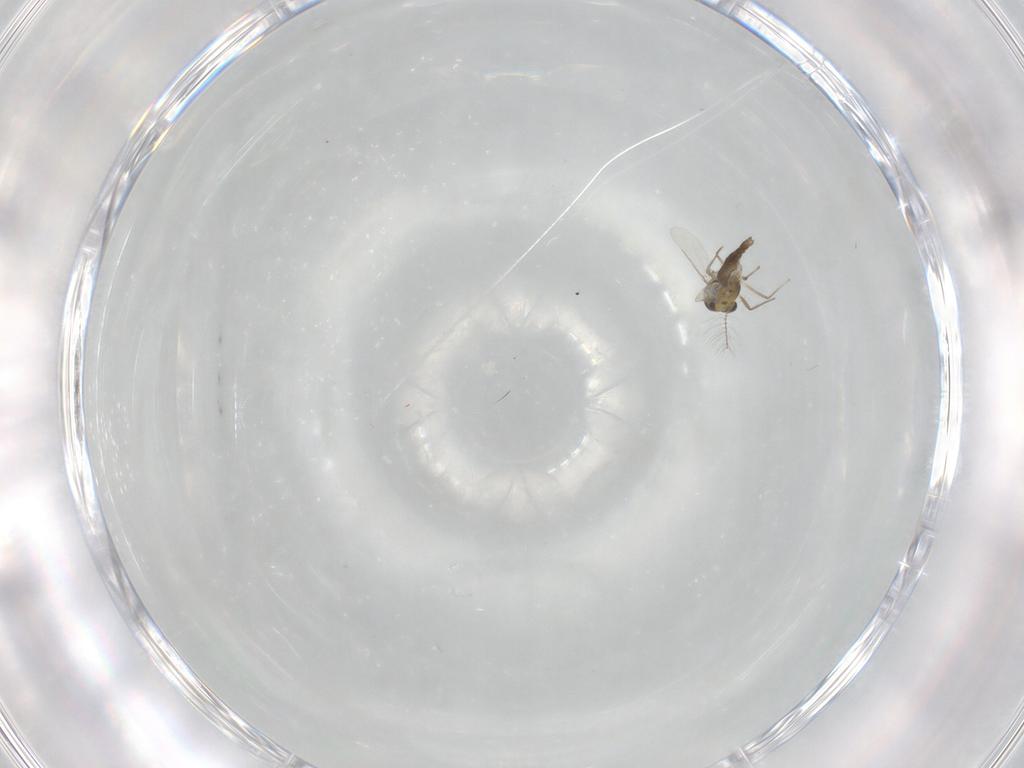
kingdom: Animalia
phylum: Arthropoda
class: Insecta
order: Diptera
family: Chironomidae
